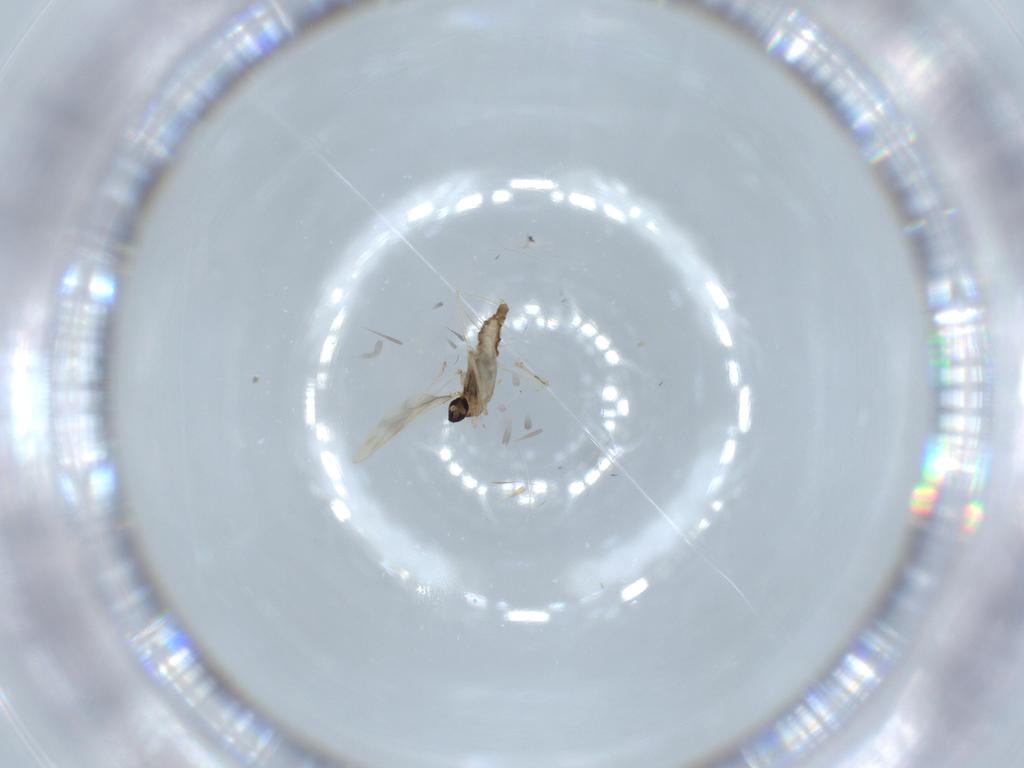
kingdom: Animalia
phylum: Arthropoda
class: Insecta
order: Diptera
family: Cecidomyiidae
